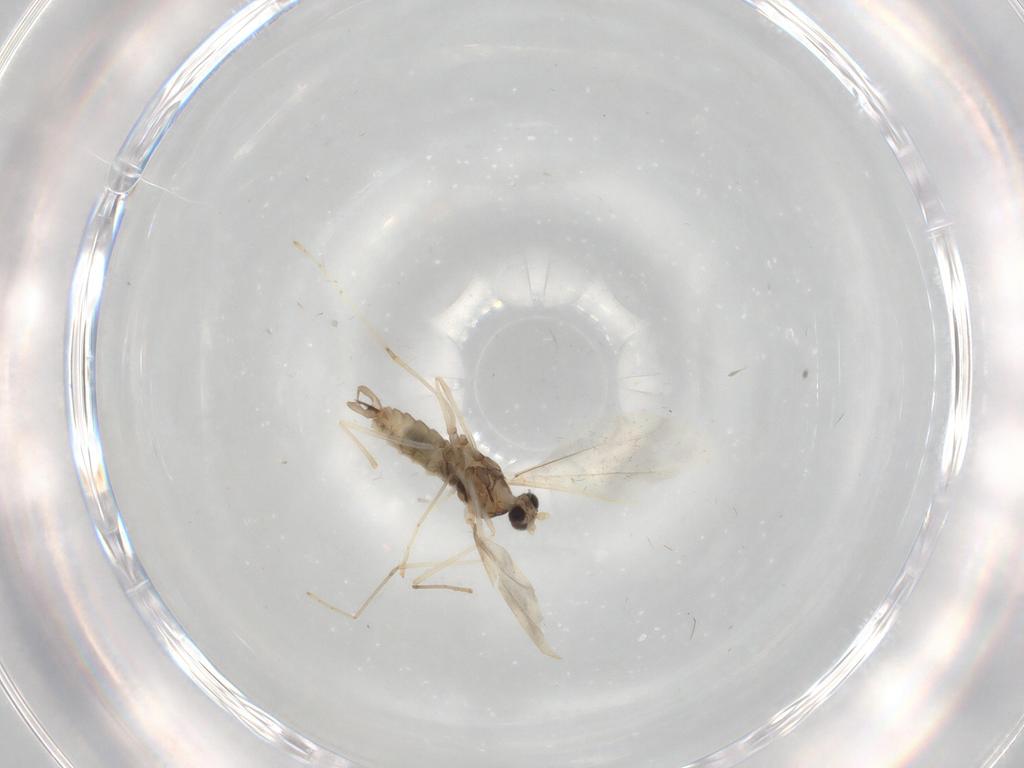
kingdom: Animalia
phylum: Arthropoda
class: Insecta
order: Diptera
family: Cecidomyiidae
